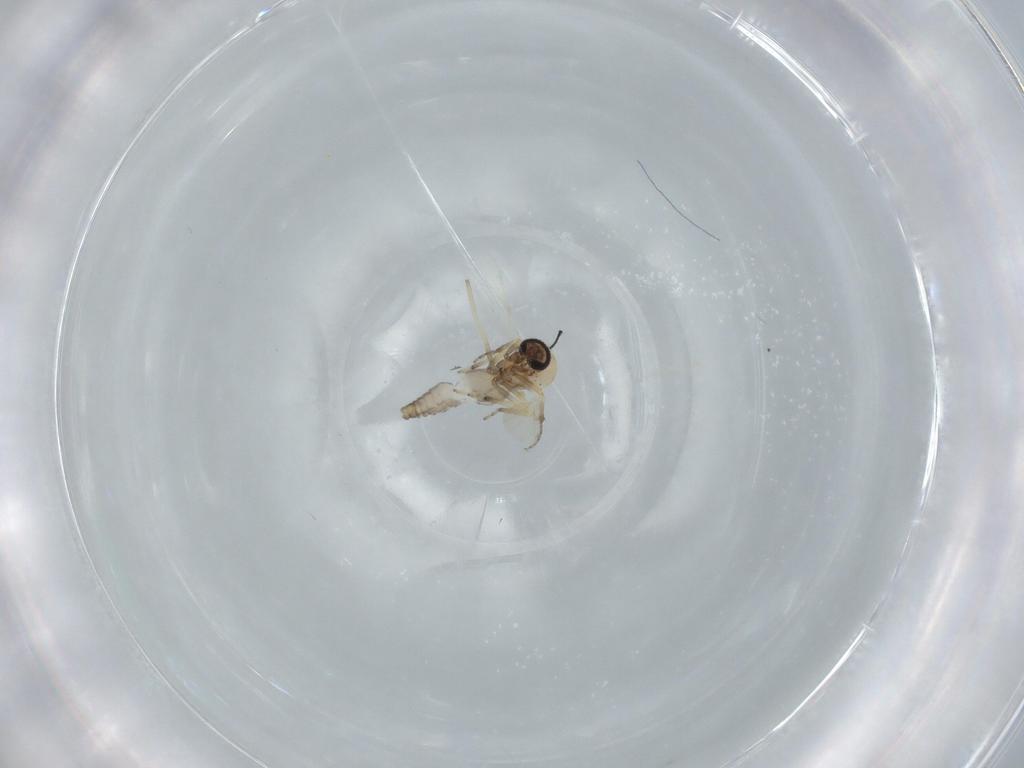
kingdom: Animalia
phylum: Arthropoda
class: Insecta
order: Diptera
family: Ceratopogonidae
